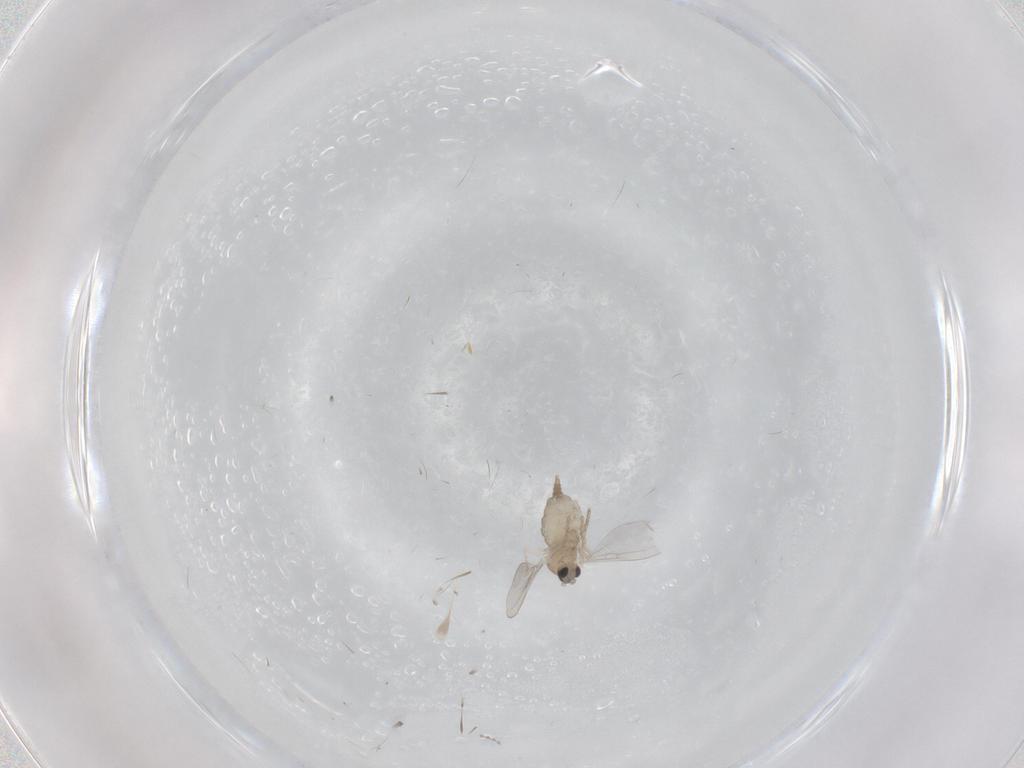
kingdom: Animalia
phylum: Arthropoda
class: Insecta
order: Diptera
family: Cecidomyiidae
